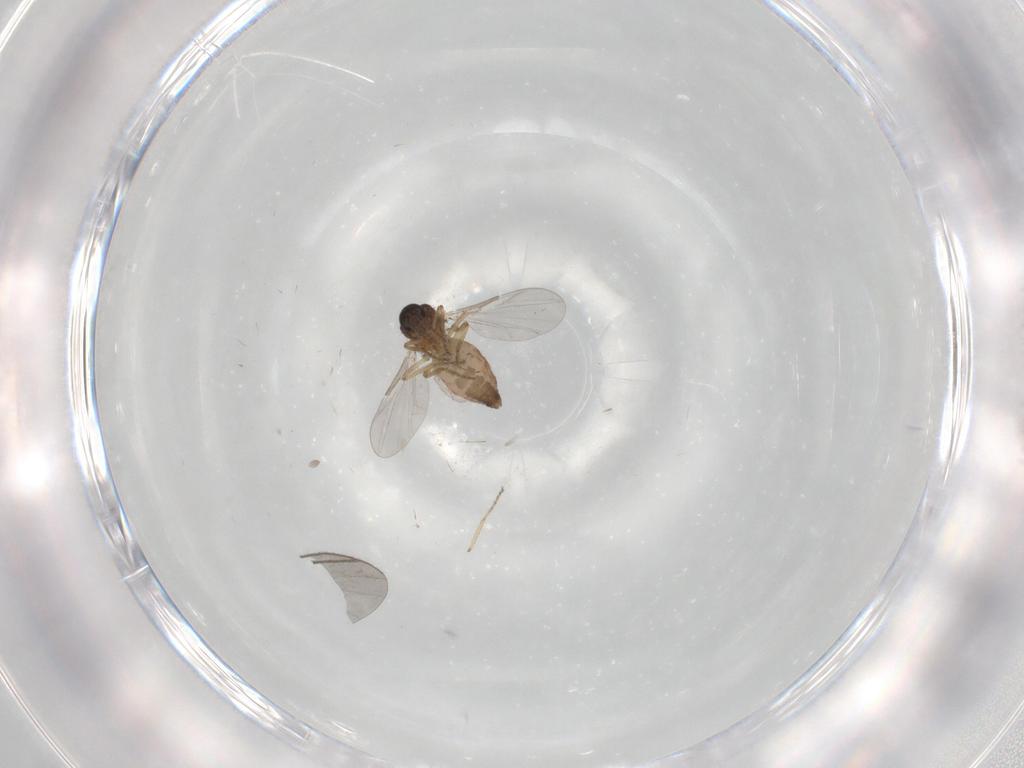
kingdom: Animalia
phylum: Arthropoda
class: Insecta
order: Diptera
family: Ceratopogonidae
